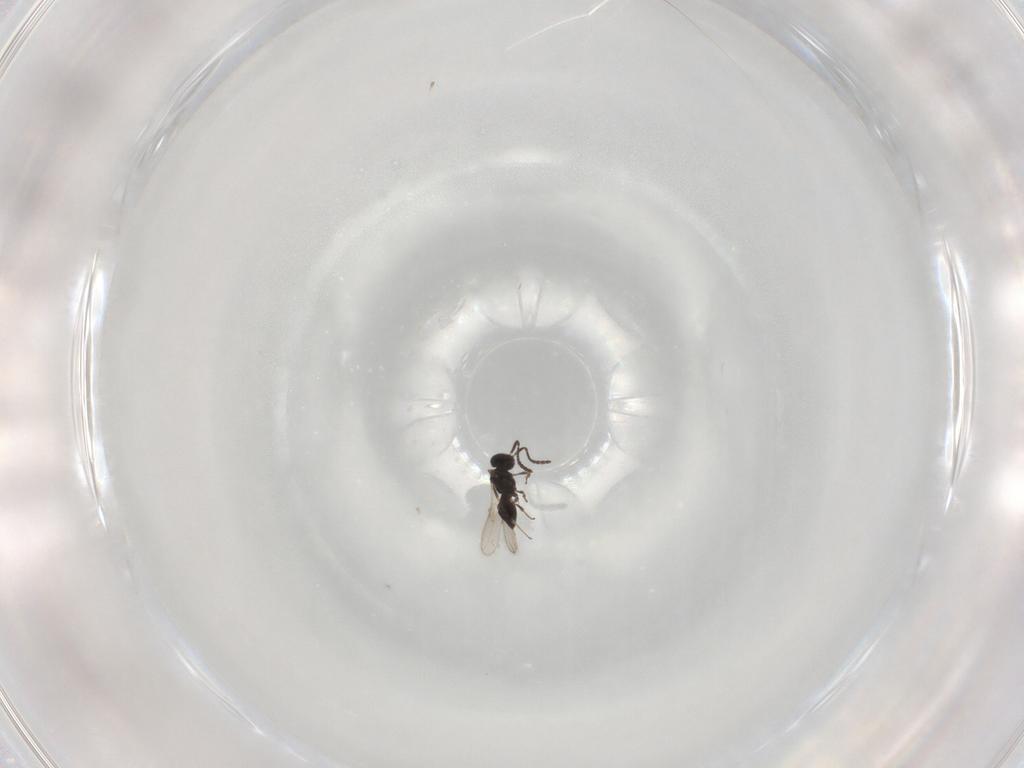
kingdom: Animalia
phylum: Arthropoda
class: Insecta
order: Hymenoptera
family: Scelionidae
